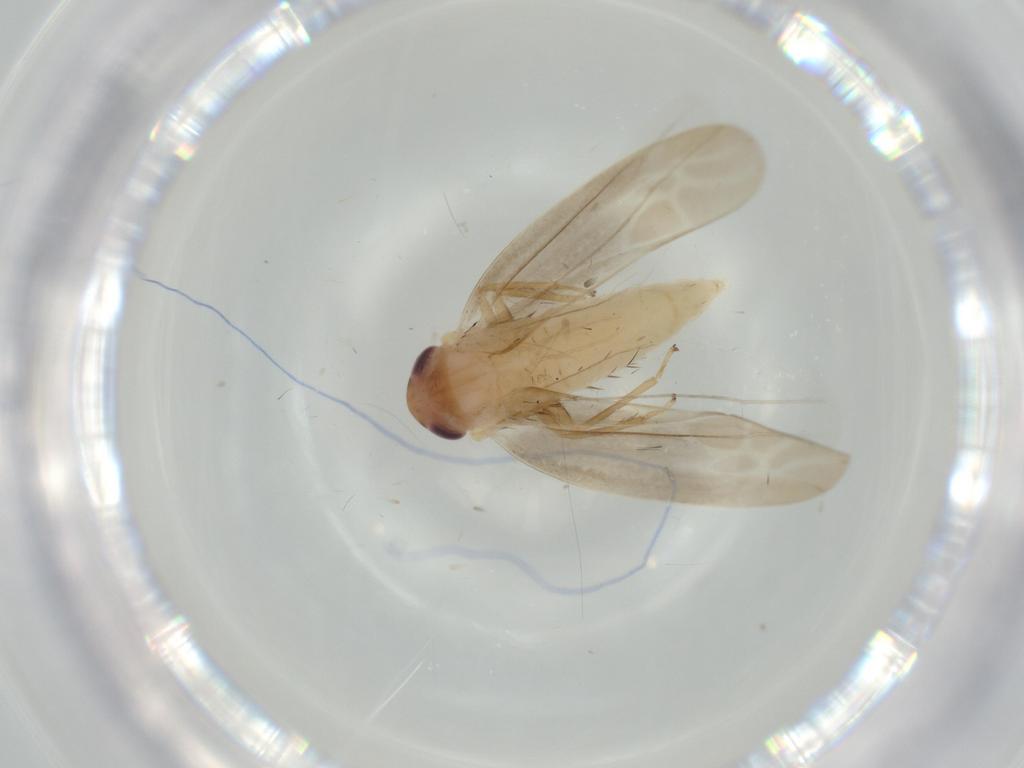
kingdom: Animalia
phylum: Arthropoda
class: Insecta
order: Hemiptera
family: Cicadellidae
